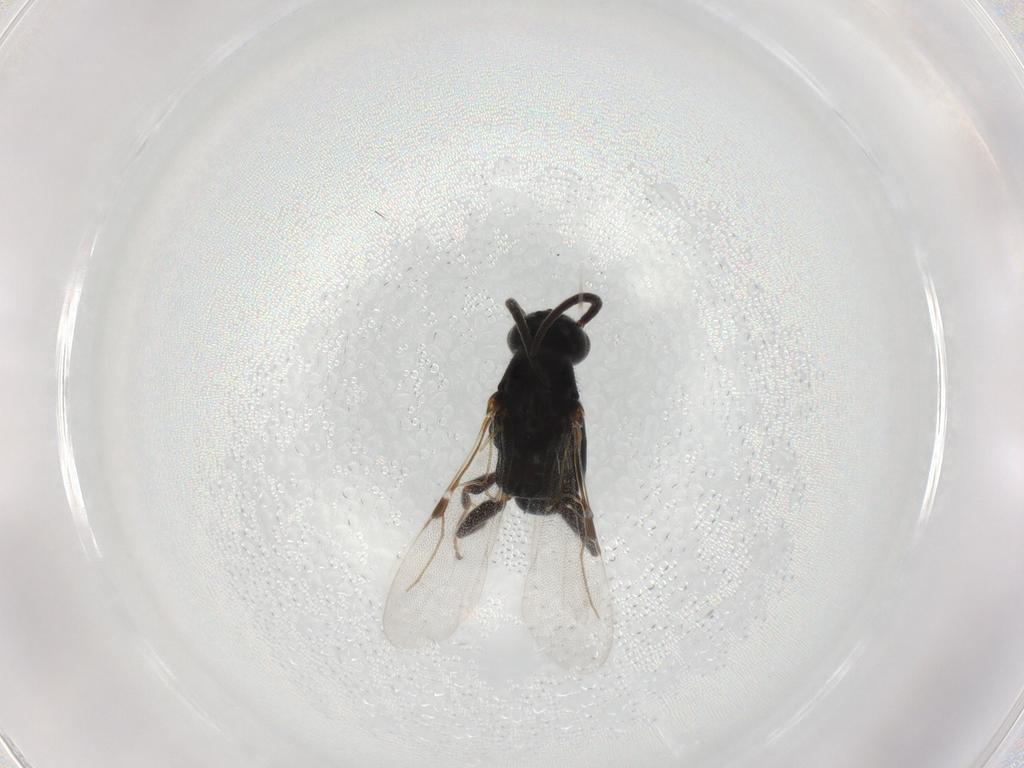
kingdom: Animalia
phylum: Arthropoda
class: Insecta
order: Hymenoptera
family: Bethylidae
